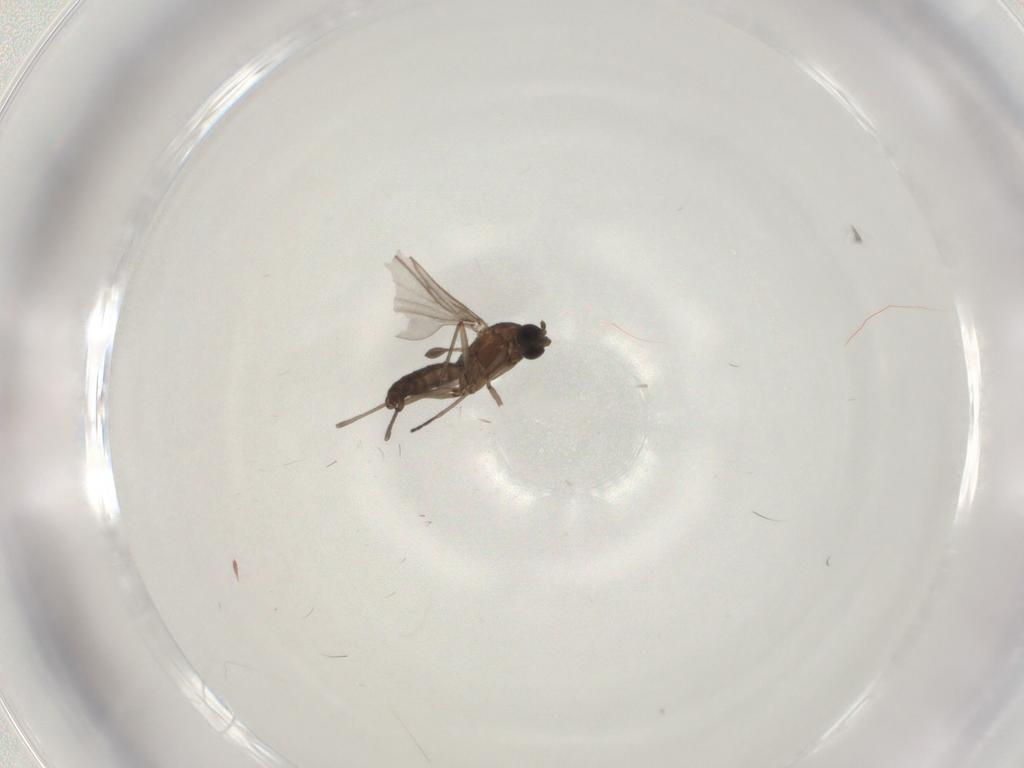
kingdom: Animalia
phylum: Arthropoda
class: Insecta
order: Diptera
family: Sciaridae
